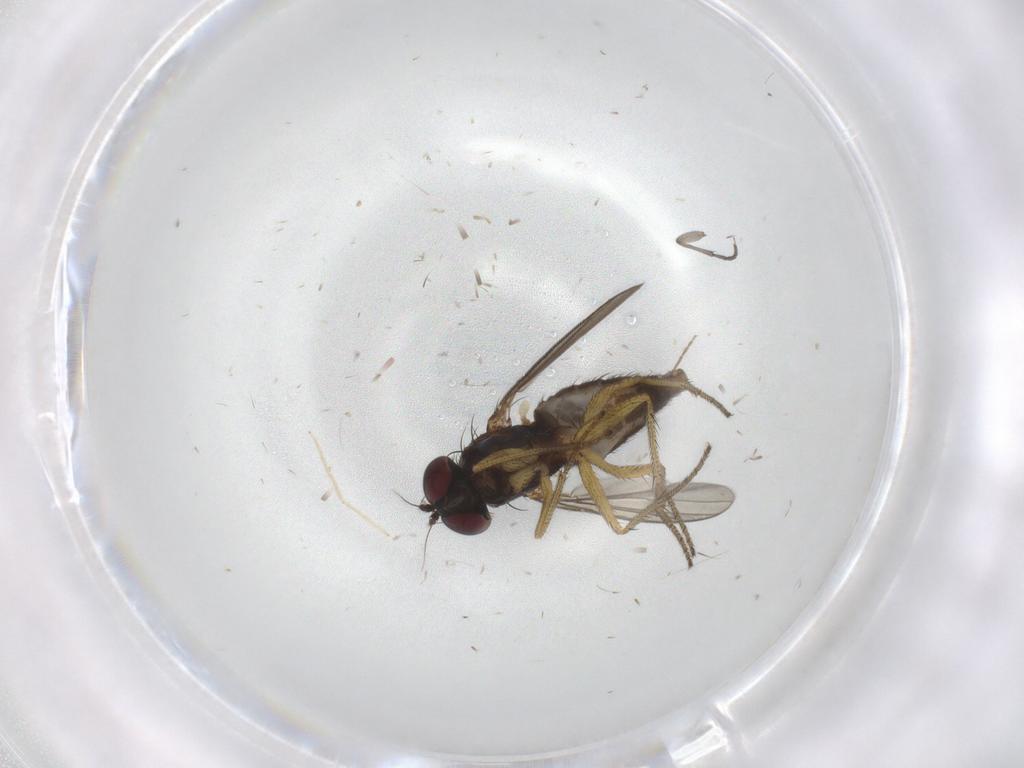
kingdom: Animalia
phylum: Arthropoda
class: Insecta
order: Diptera
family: Sciaridae
